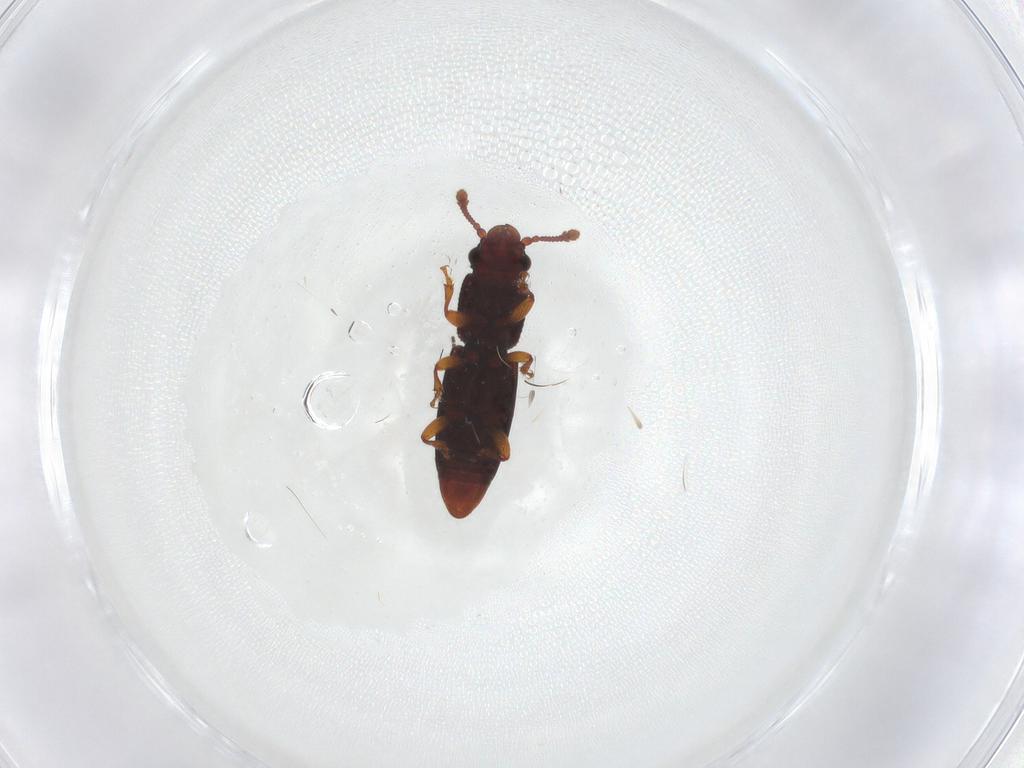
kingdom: Animalia
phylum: Arthropoda
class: Insecta
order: Coleoptera
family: Monotomidae
